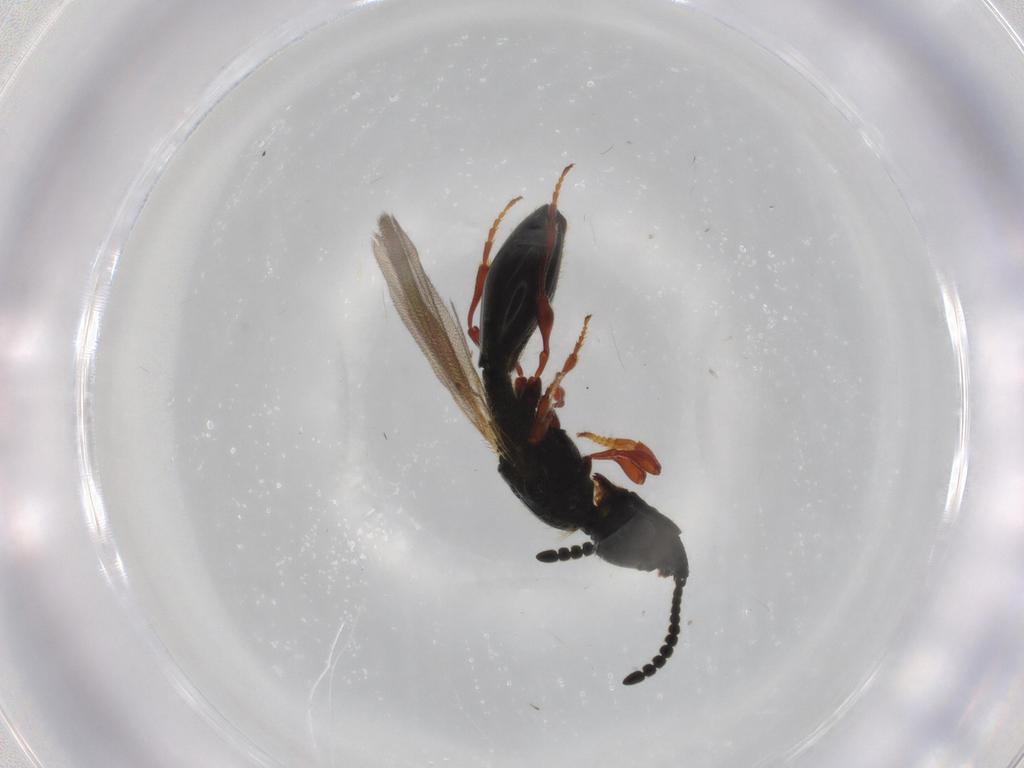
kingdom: Animalia
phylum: Arthropoda
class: Insecta
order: Hymenoptera
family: Diapriidae
